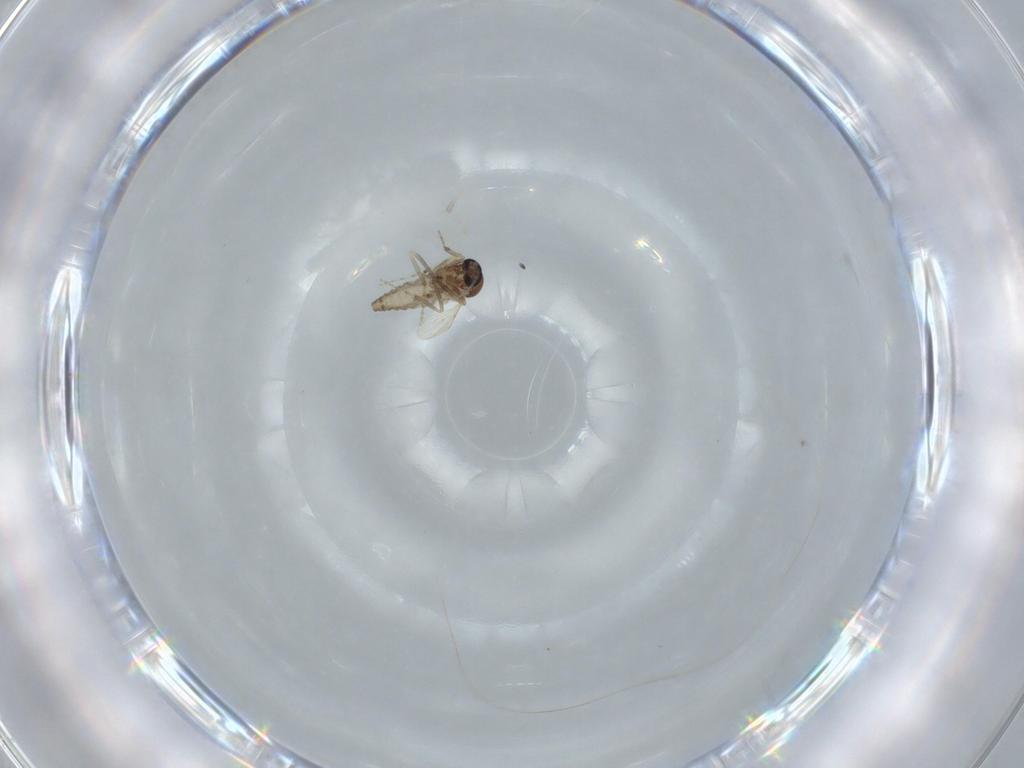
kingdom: Animalia
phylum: Arthropoda
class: Insecta
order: Diptera
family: Ceratopogonidae
